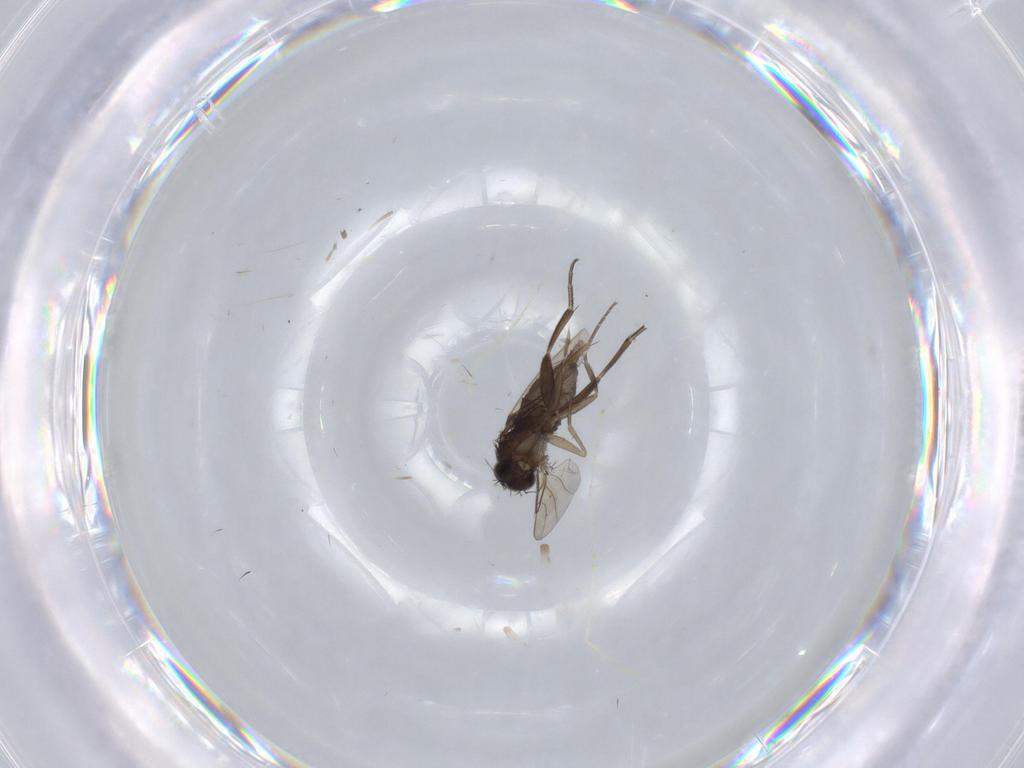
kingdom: Animalia
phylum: Arthropoda
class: Insecta
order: Diptera
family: Phoridae
